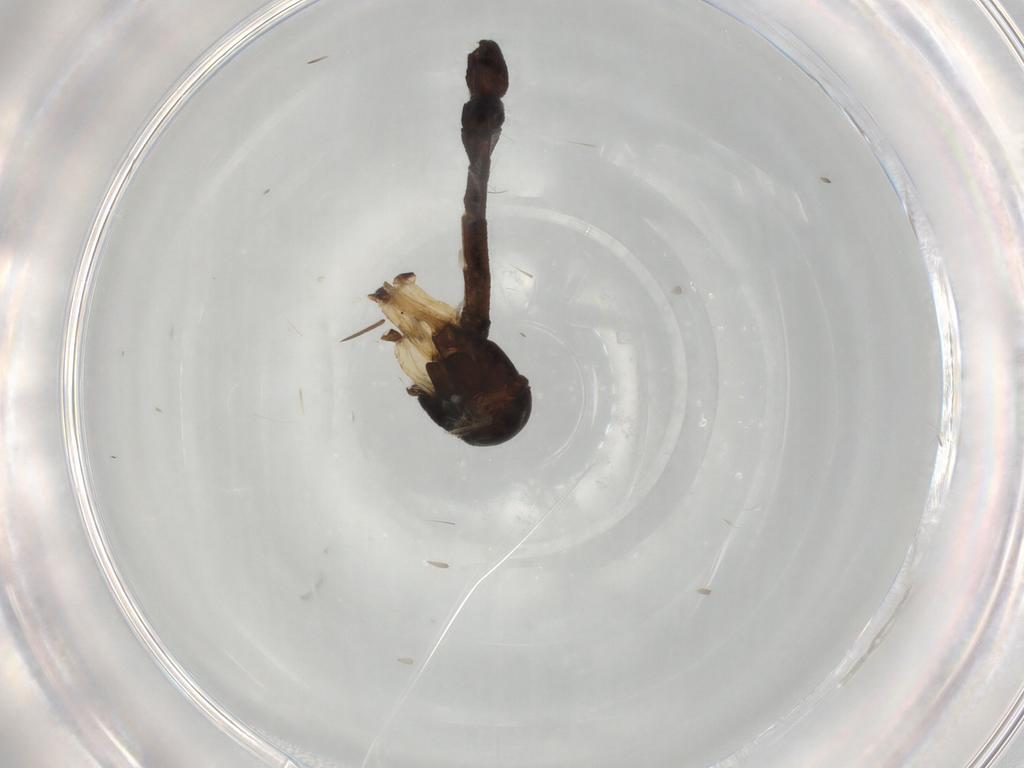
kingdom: Animalia
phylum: Arthropoda
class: Insecta
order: Diptera
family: Mycetophilidae
